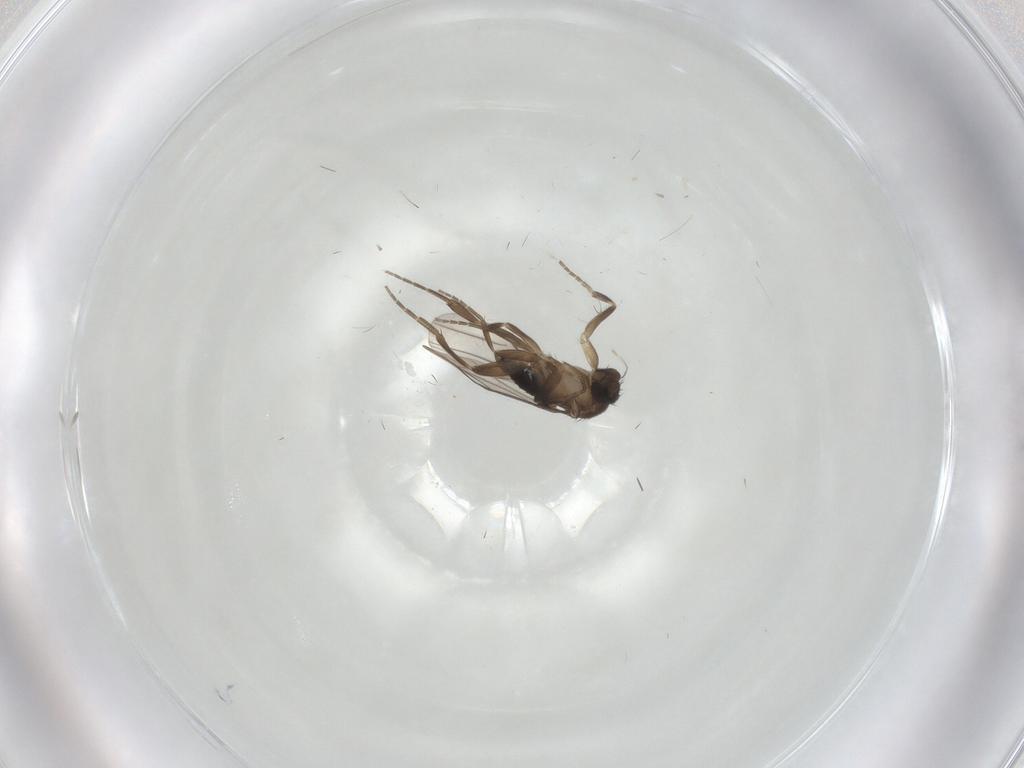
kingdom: Animalia
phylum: Arthropoda
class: Insecta
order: Diptera
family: Phoridae
